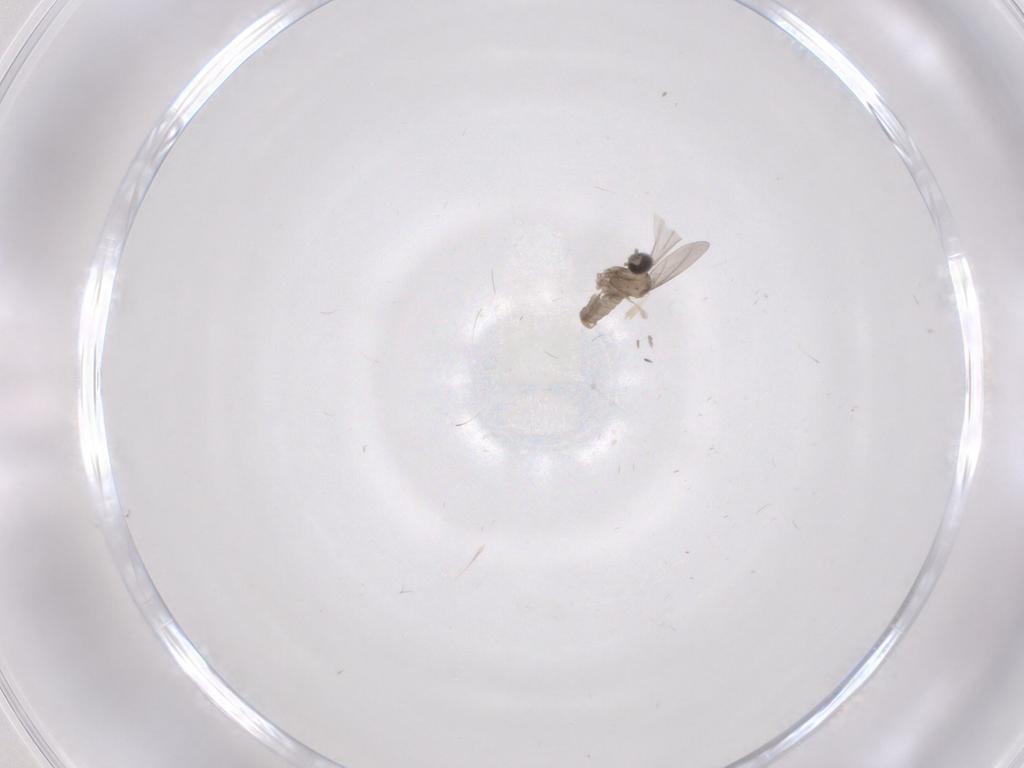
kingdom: Animalia
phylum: Arthropoda
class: Insecta
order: Diptera
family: Phoridae
